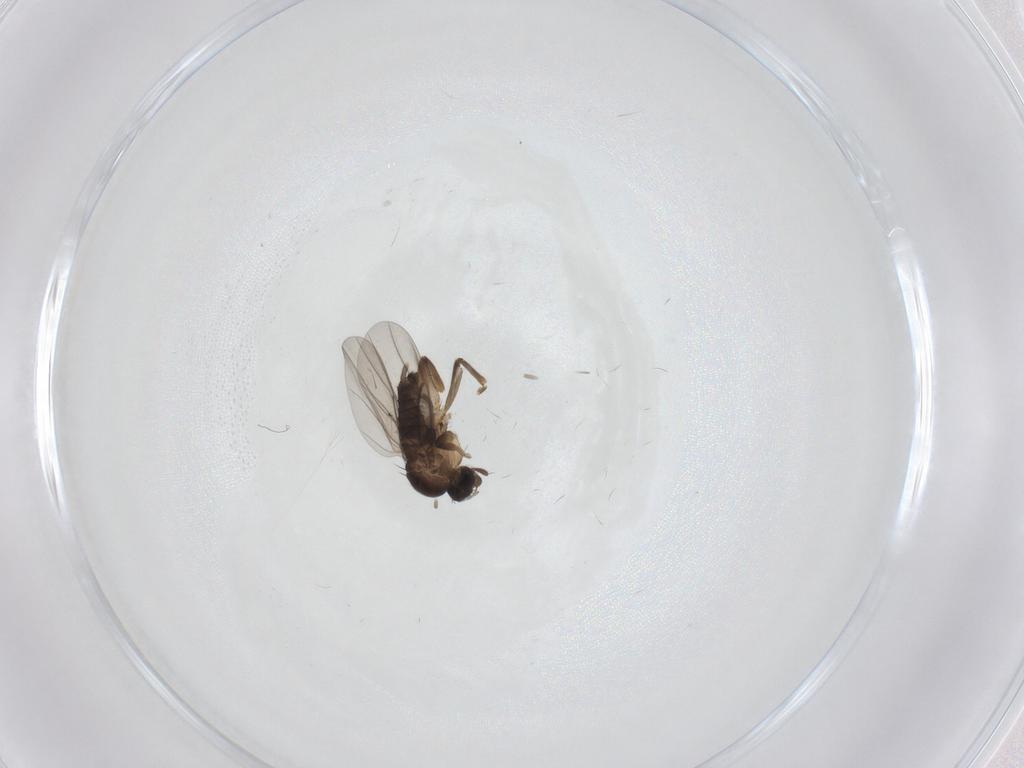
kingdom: Animalia
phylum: Arthropoda
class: Insecta
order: Diptera
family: Phoridae
